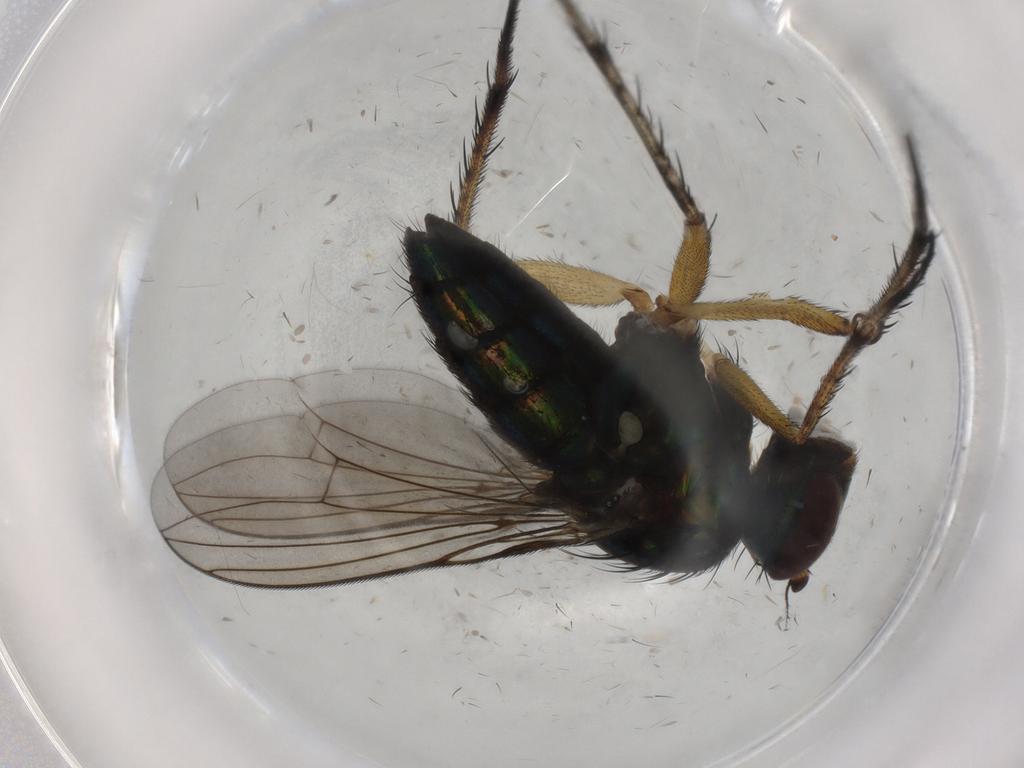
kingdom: Animalia
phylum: Arthropoda
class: Insecta
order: Diptera
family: Dolichopodidae
